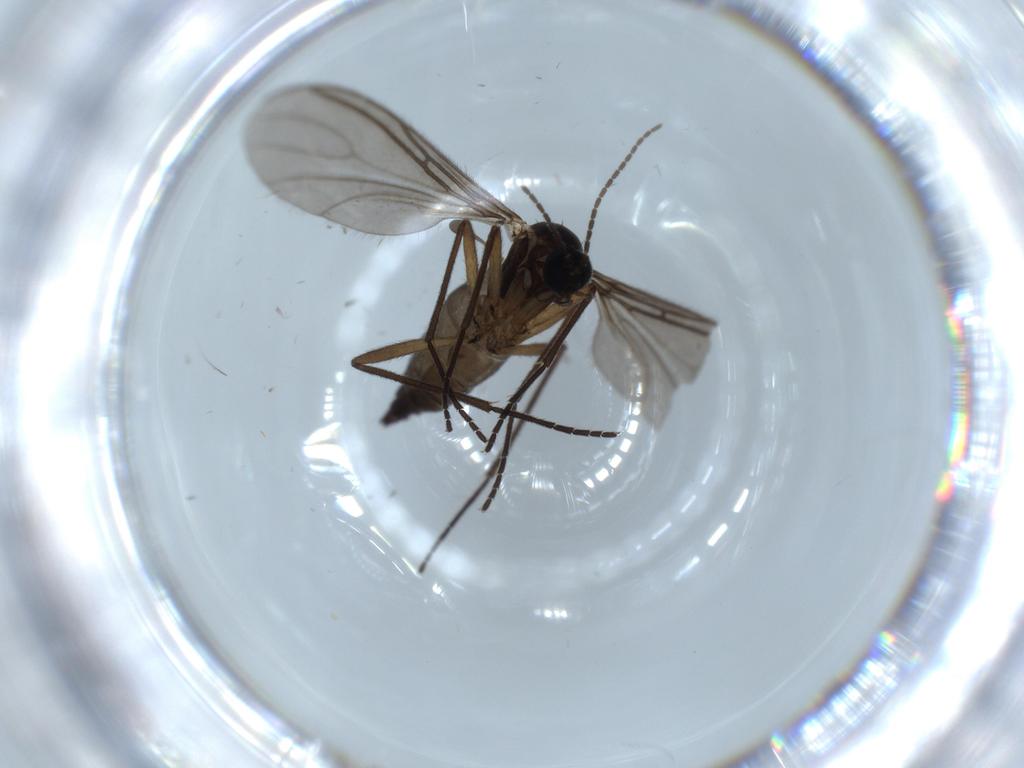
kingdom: Animalia
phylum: Arthropoda
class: Insecta
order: Diptera
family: Sciaridae
